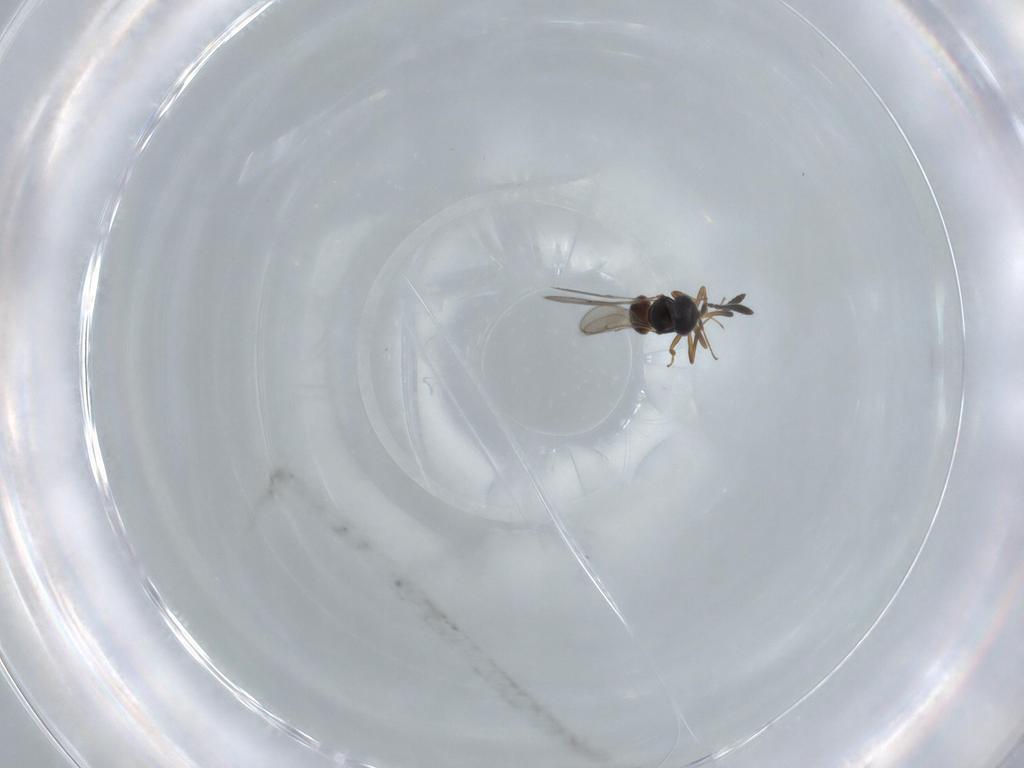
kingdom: Animalia
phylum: Arthropoda
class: Insecta
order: Hymenoptera
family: Scelionidae
